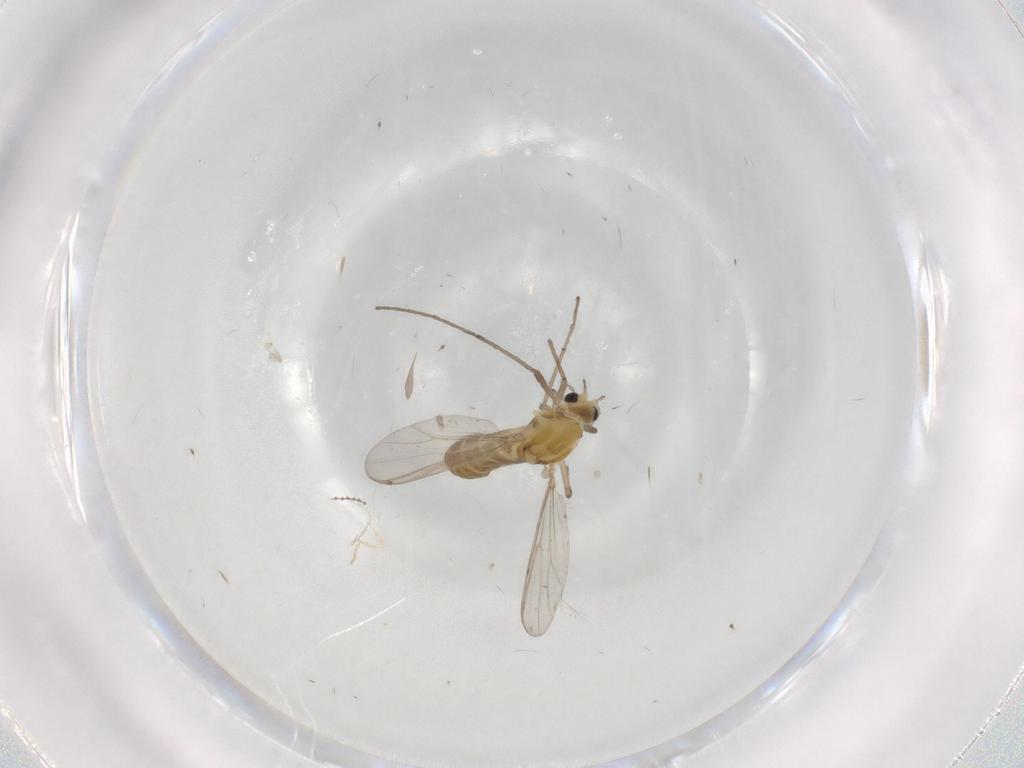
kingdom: Animalia
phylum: Arthropoda
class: Insecta
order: Diptera
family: Chironomidae
